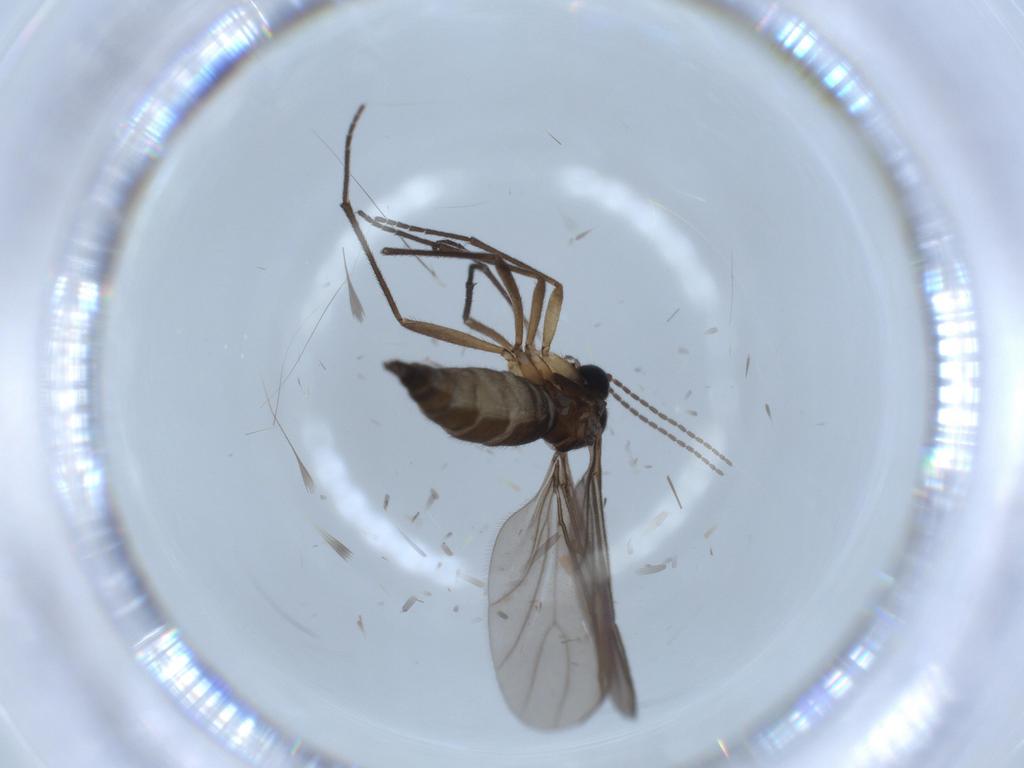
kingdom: Animalia
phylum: Arthropoda
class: Insecta
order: Diptera
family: Sciaridae
